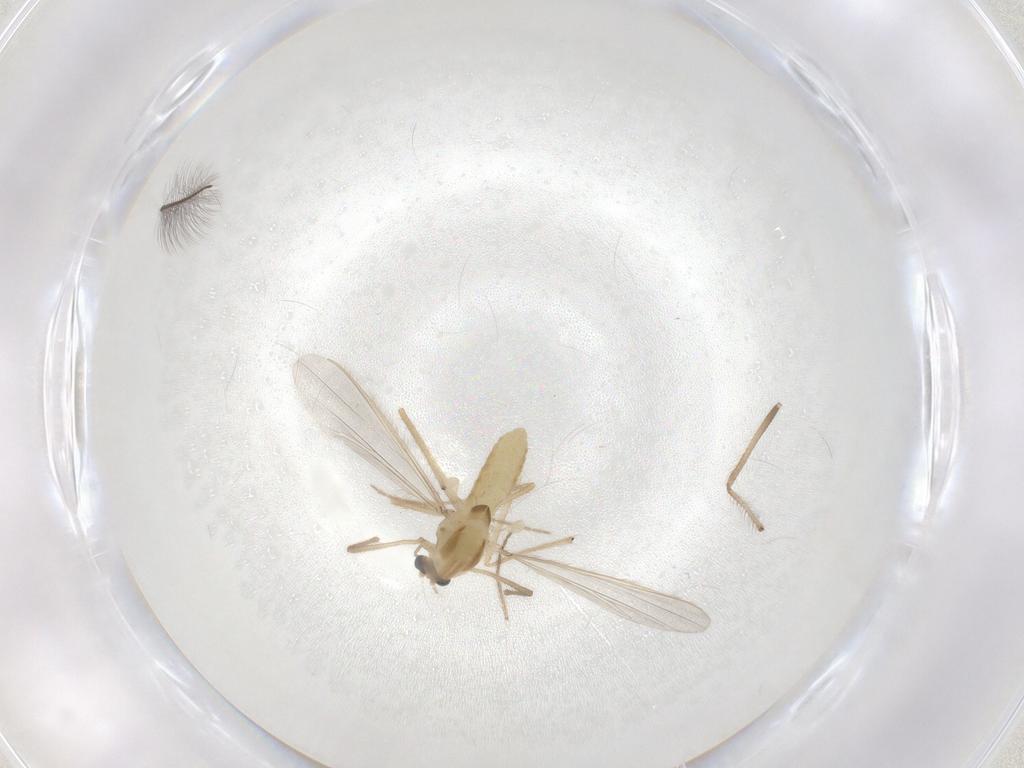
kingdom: Animalia
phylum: Arthropoda
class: Insecta
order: Diptera
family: Chironomidae
